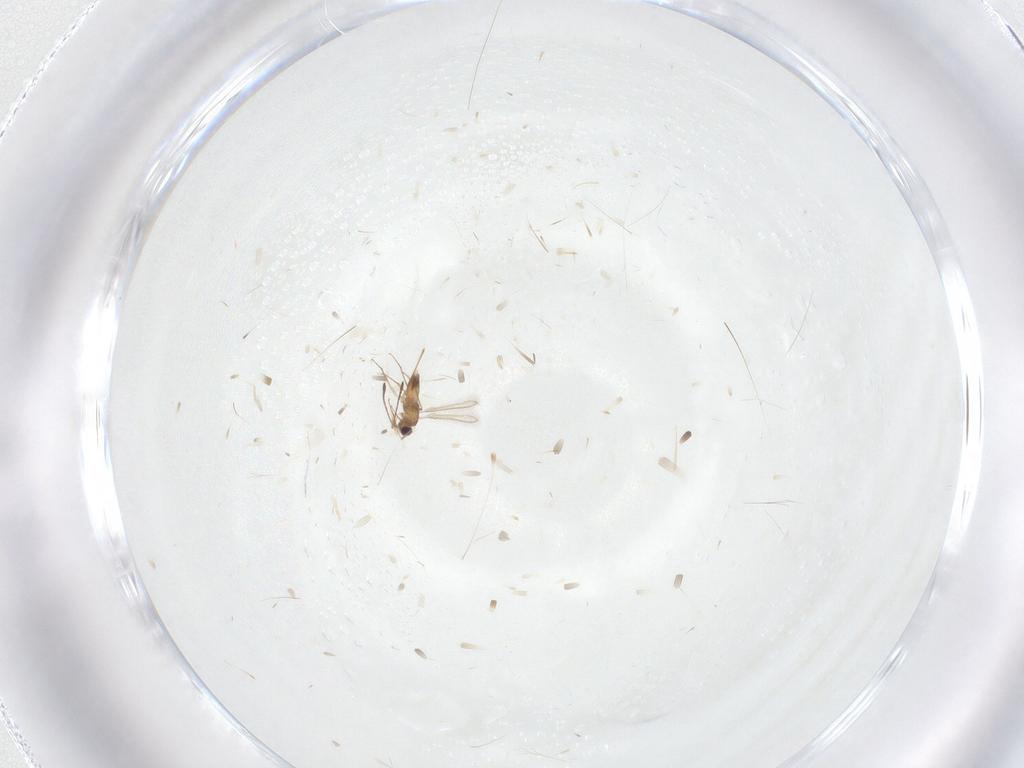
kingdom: Animalia
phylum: Arthropoda
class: Insecta
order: Hymenoptera
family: Mymaridae
